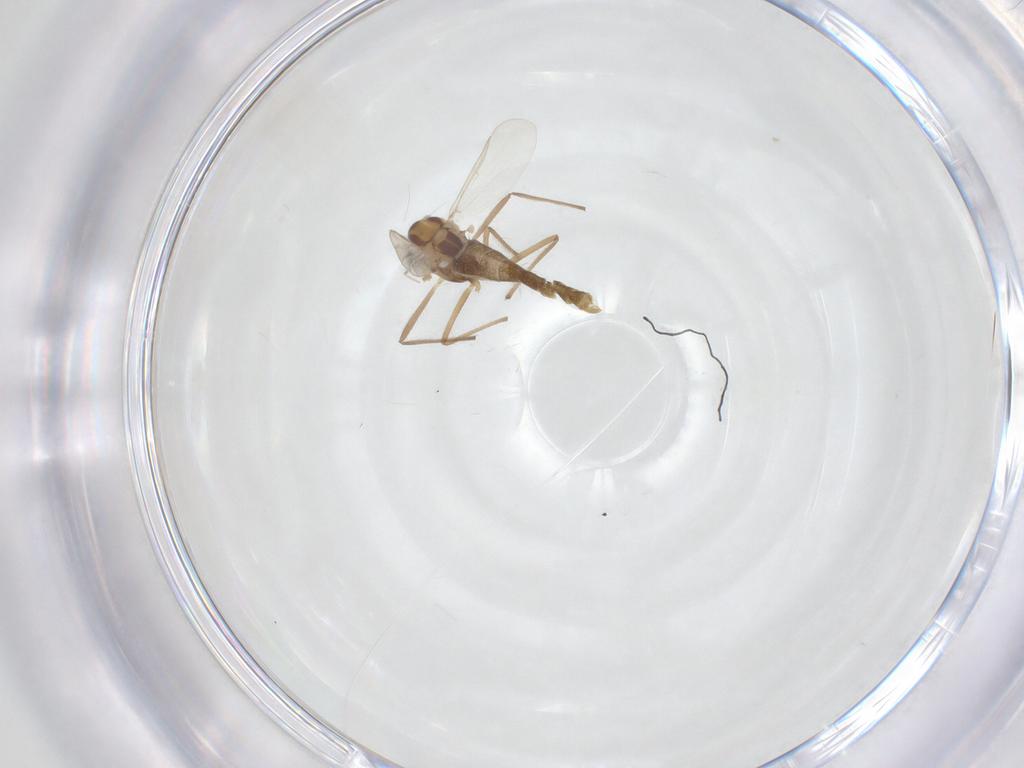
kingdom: Animalia
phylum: Arthropoda
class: Insecta
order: Diptera
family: Chironomidae
